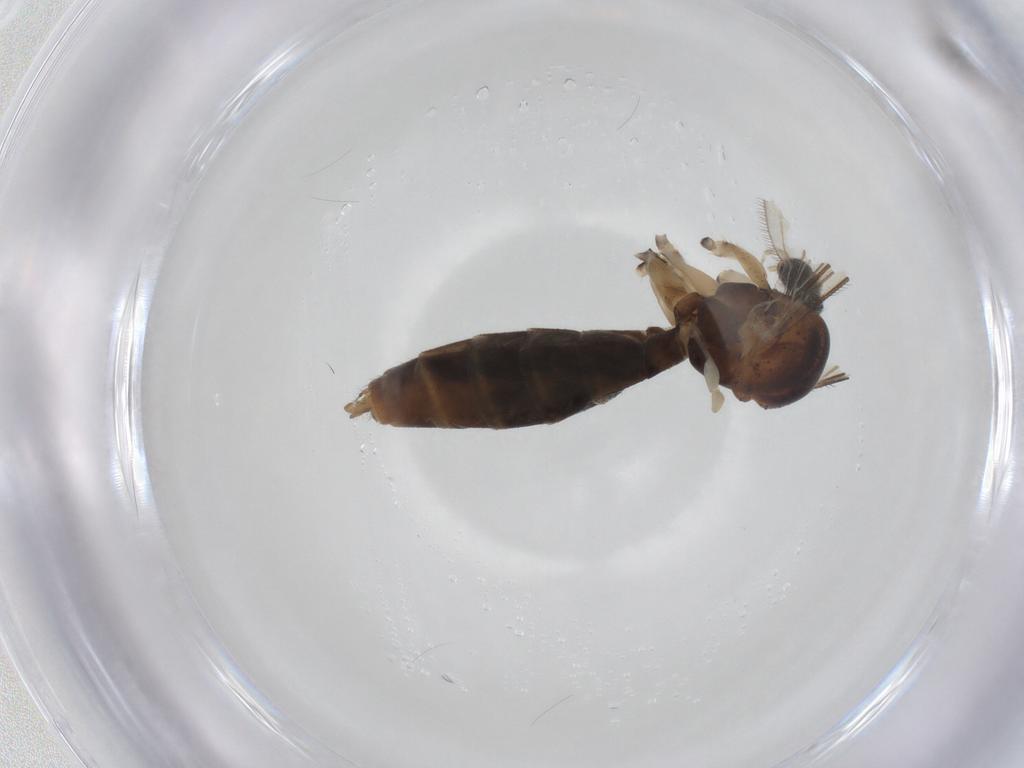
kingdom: Animalia
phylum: Arthropoda
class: Insecta
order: Diptera
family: Mycetophilidae
